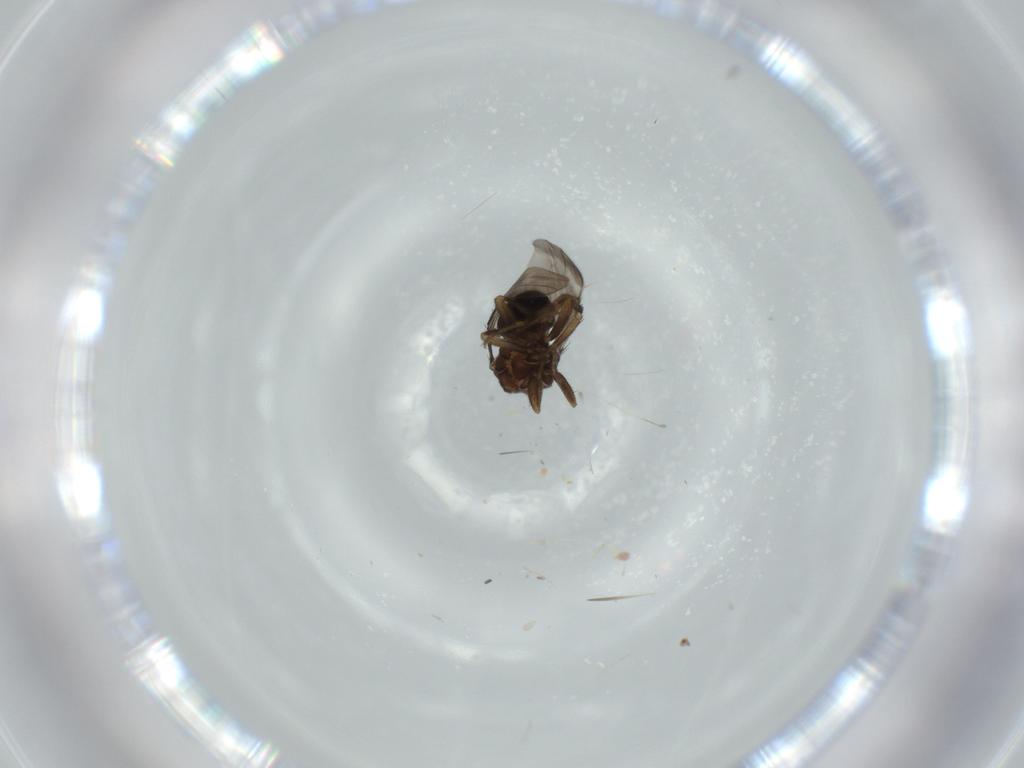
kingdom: Animalia
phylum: Arthropoda
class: Insecta
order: Diptera
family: Sphaeroceridae
